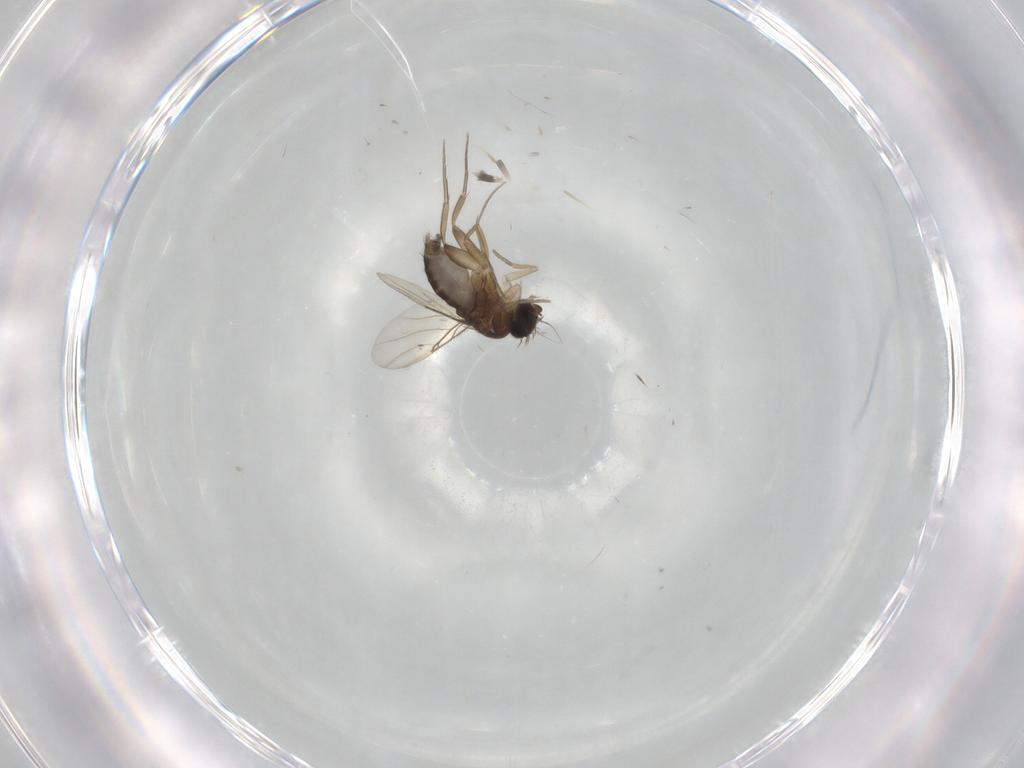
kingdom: Animalia
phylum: Arthropoda
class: Insecta
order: Diptera
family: Phoridae
